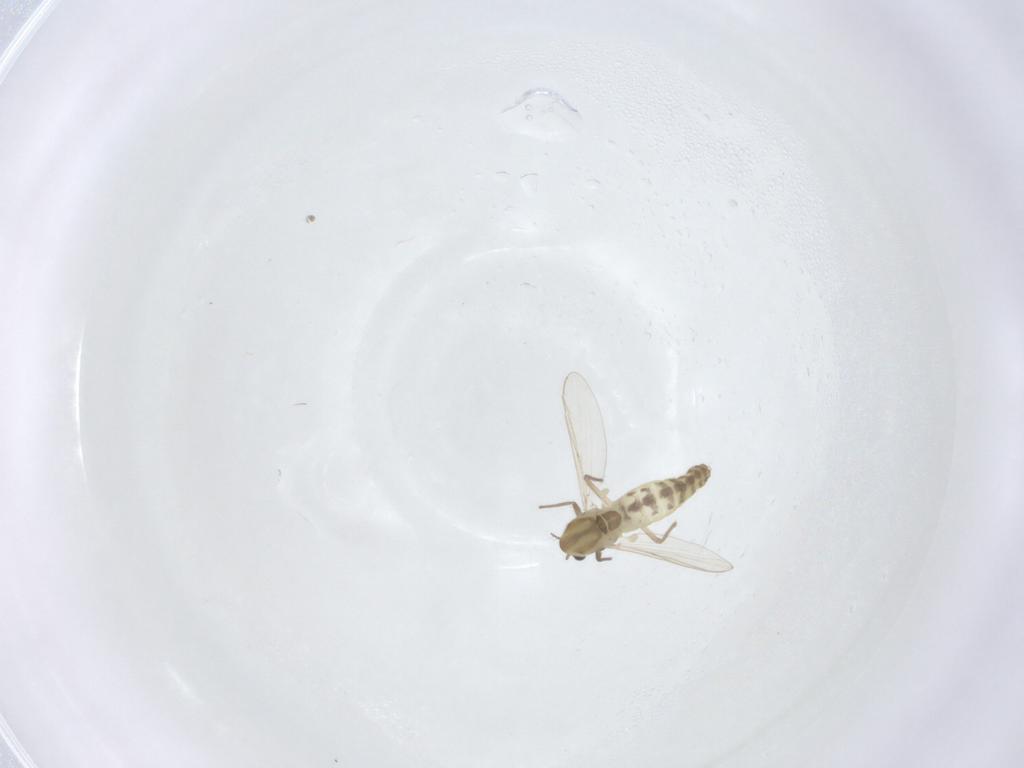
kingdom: Animalia
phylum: Arthropoda
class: Insecta
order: Diptera
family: Chironomidae
